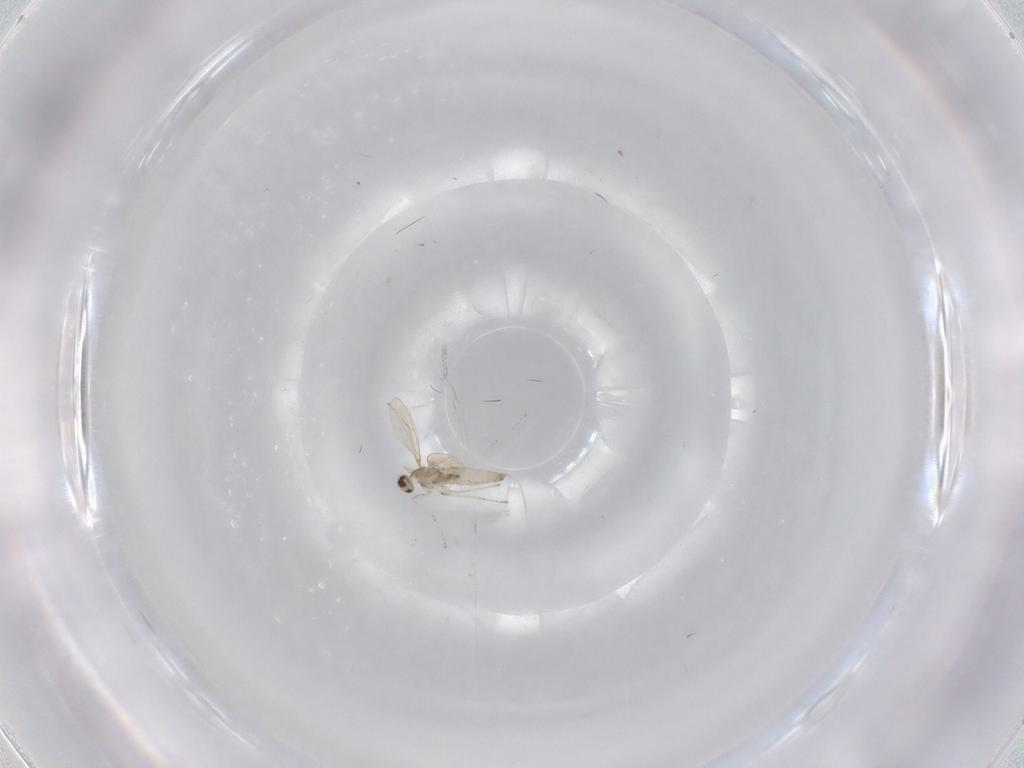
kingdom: Animalia
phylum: Arthropoda
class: Insecta
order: Diptera
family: Cecidomyiidae
